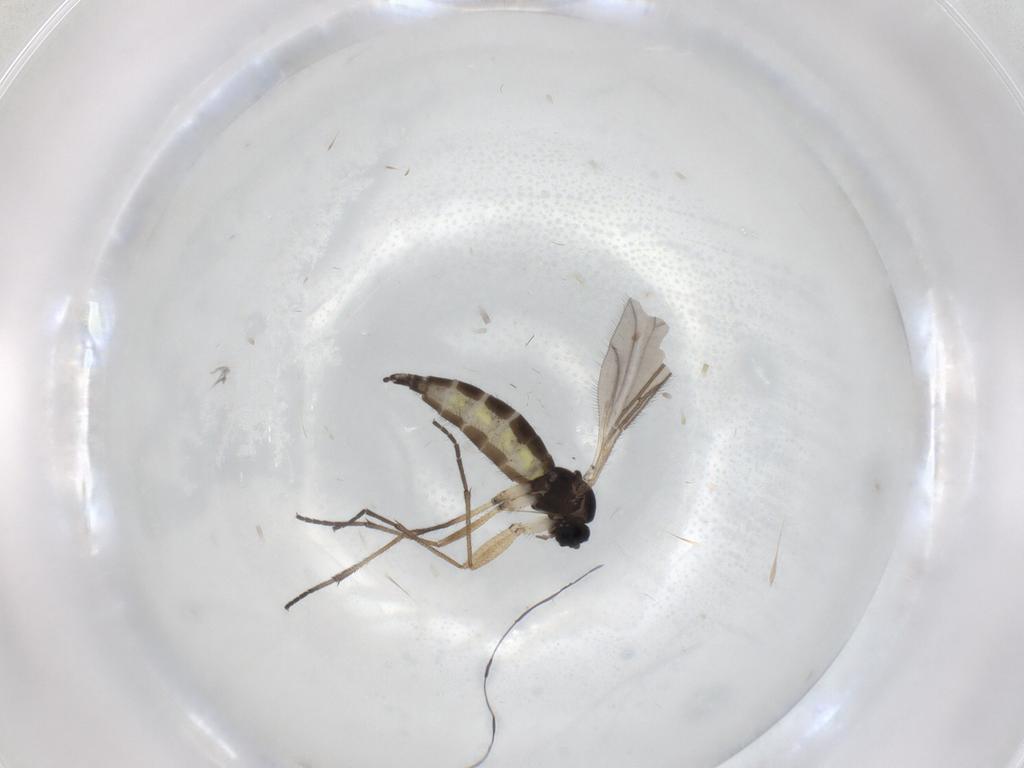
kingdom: Animalia
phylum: Arthropoda
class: Insecta
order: Diptera
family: Sciaridae
